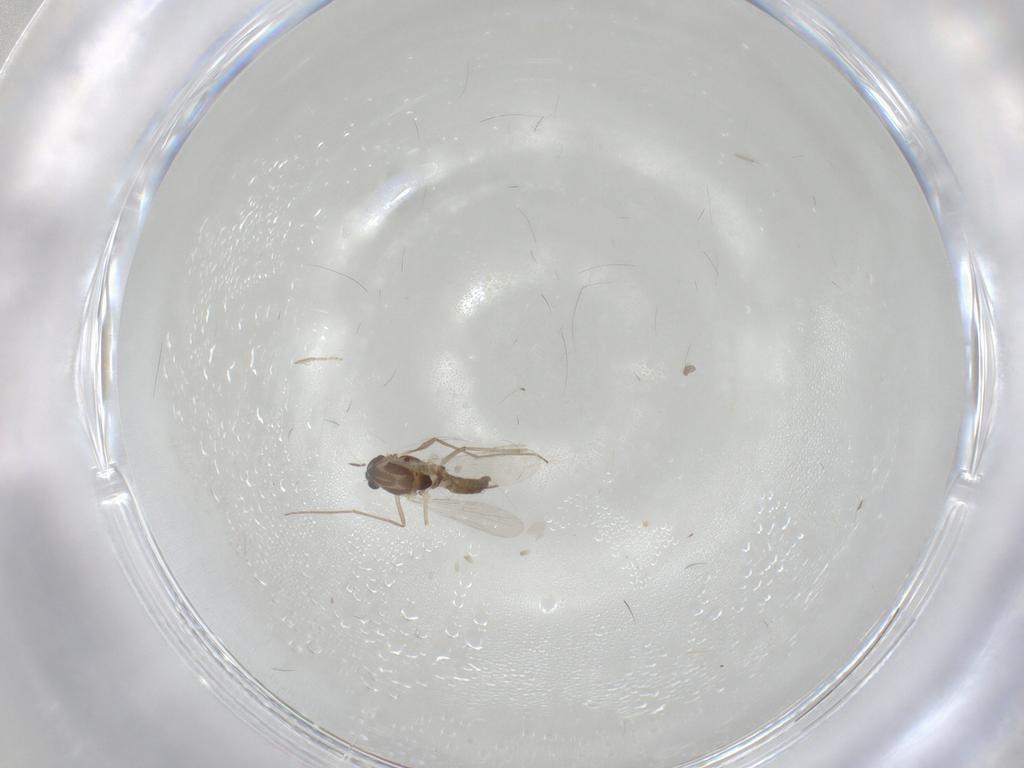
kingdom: Animalia
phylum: Arthropoda
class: Insecta
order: Diptera
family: Chironomidae
